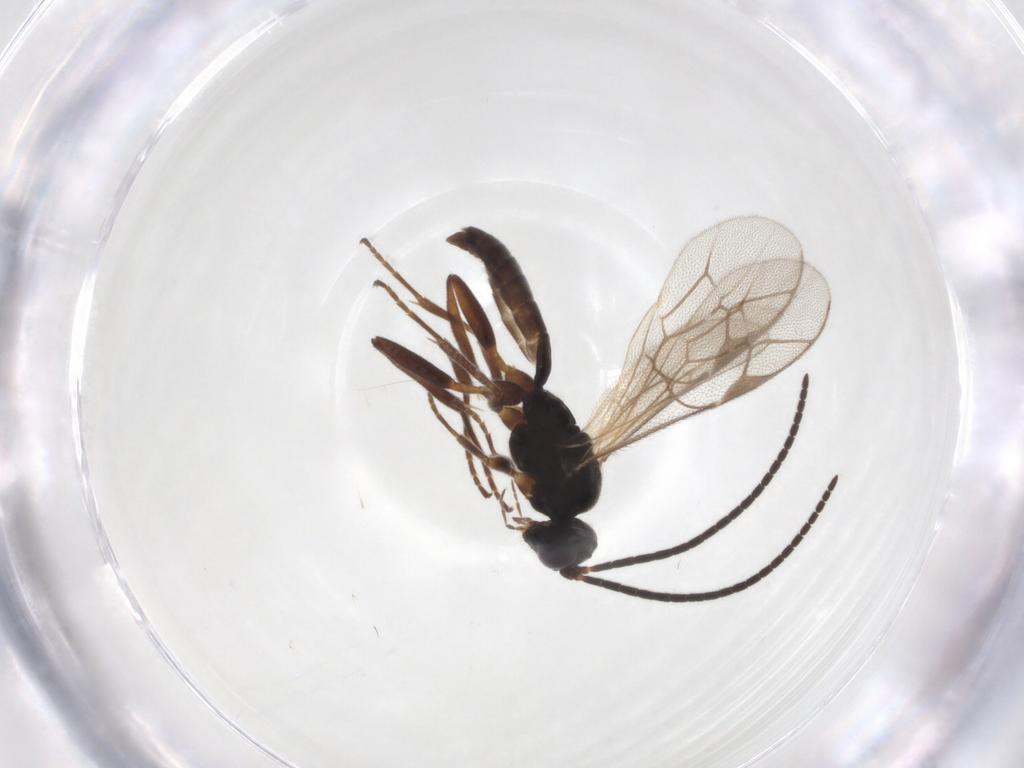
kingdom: Animalia
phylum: Arthropoda
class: Insecta
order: Hymenoptera
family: Ichneumonidae
